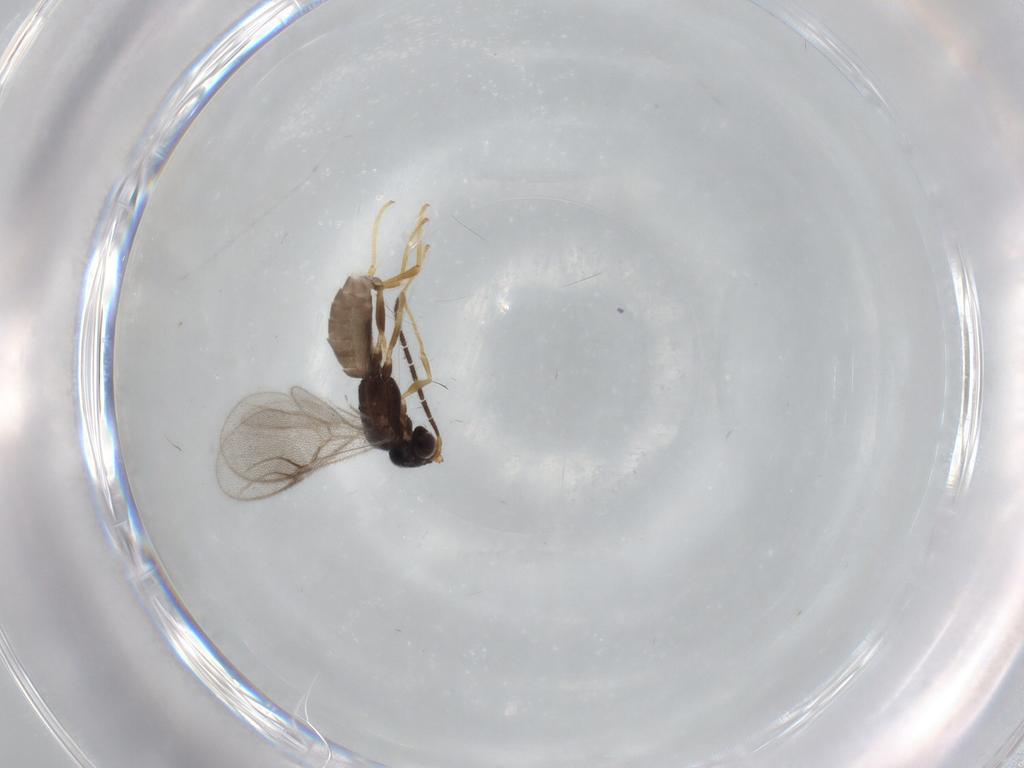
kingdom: Animalia
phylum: Arthropoda
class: Insecta
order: Hymenoptera
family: Dryinidae
